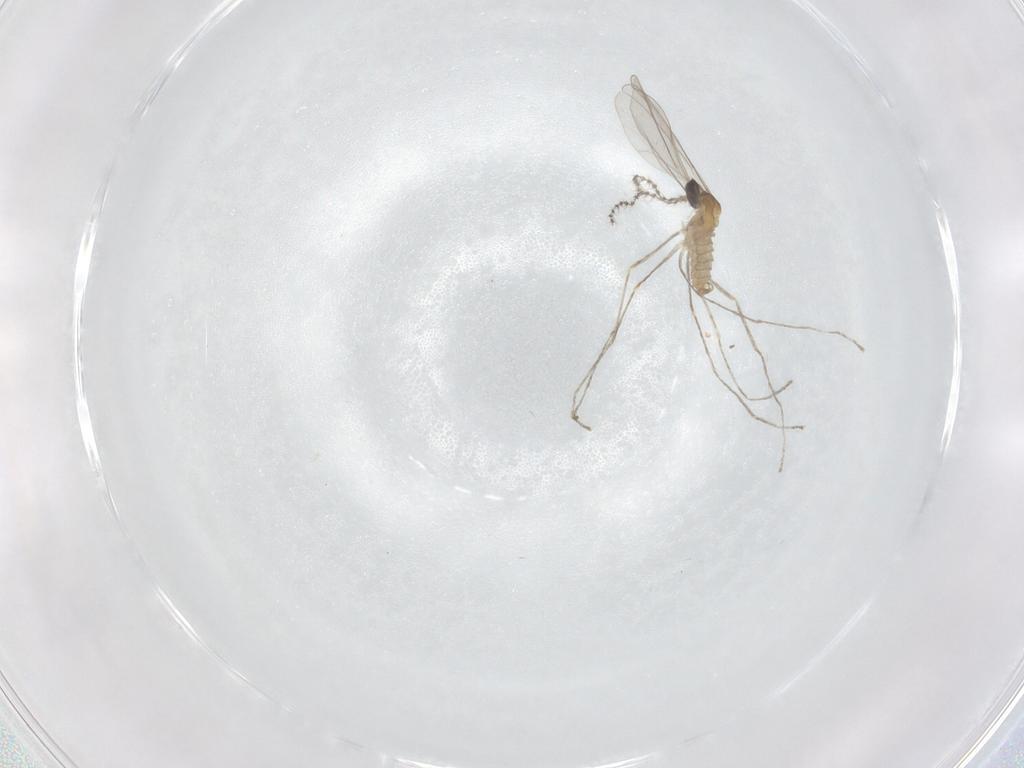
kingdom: Animalia
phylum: Arthropoda
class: Insecta
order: Diptera
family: Cecidomyiidae
